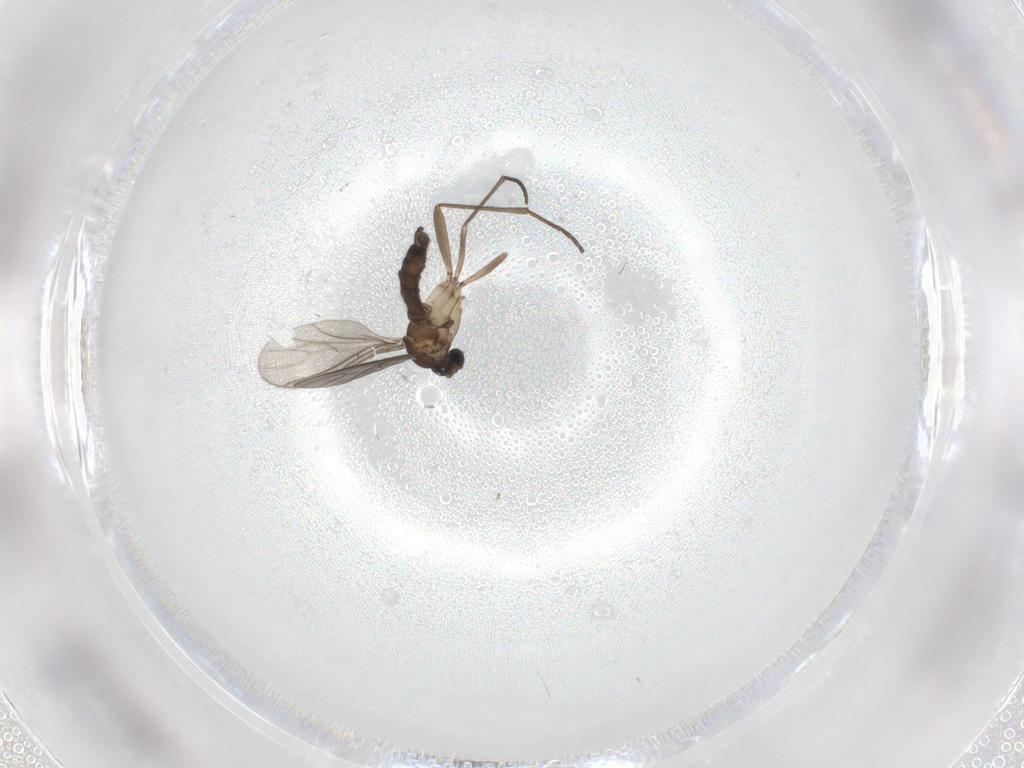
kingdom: Animalia
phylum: Arthropoda
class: Insecta
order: Diptera
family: Phoridae
